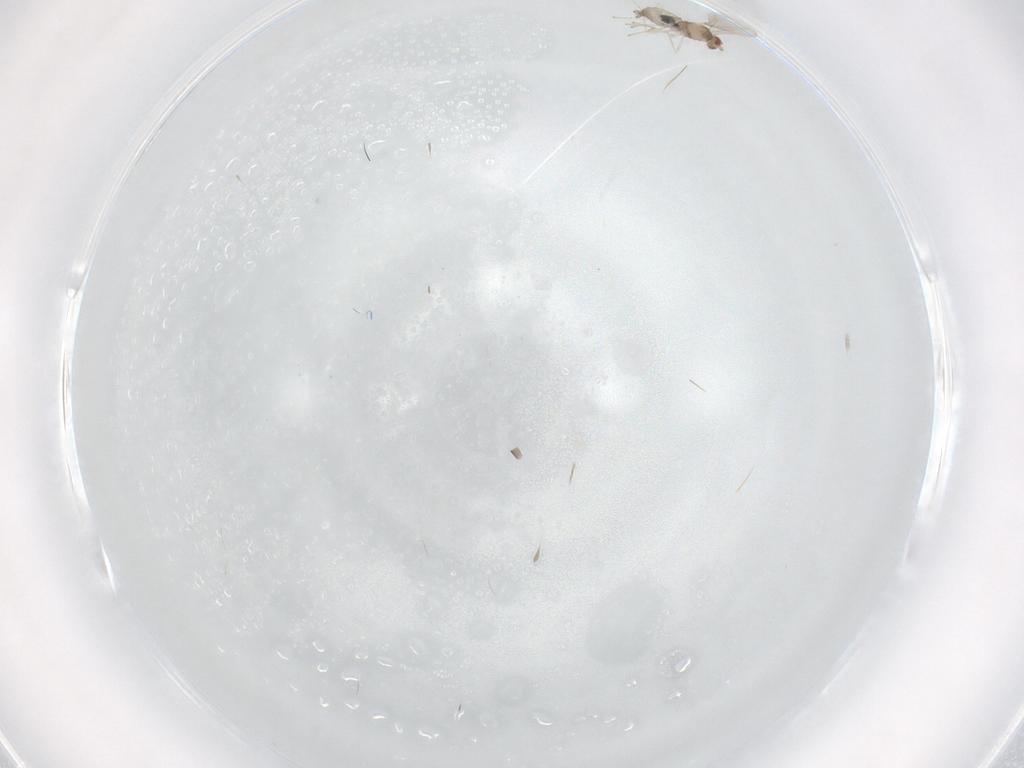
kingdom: Animalia
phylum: Arthropoda
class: Insecta
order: Diptera
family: Cecidomyiidae
